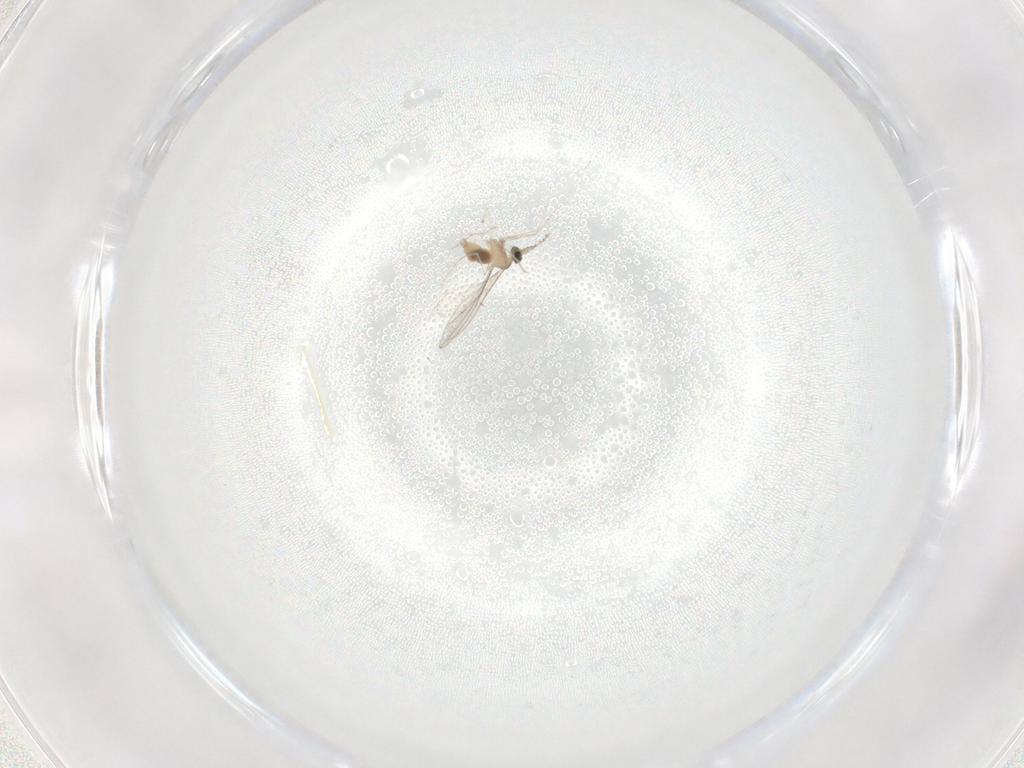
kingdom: Animalia
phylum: Arthropoda
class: Insecta
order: Diptera
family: Cecidomyiidae
